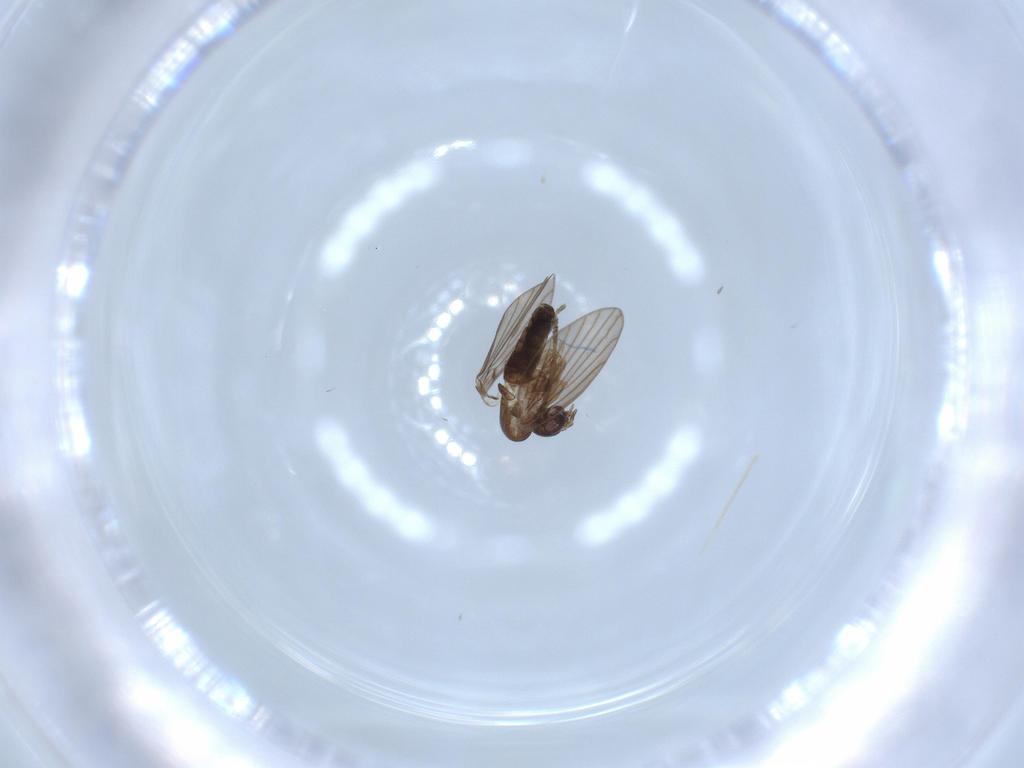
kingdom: Animalia
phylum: Arthropoda
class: Insecta
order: Diptera
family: Psychodidae
